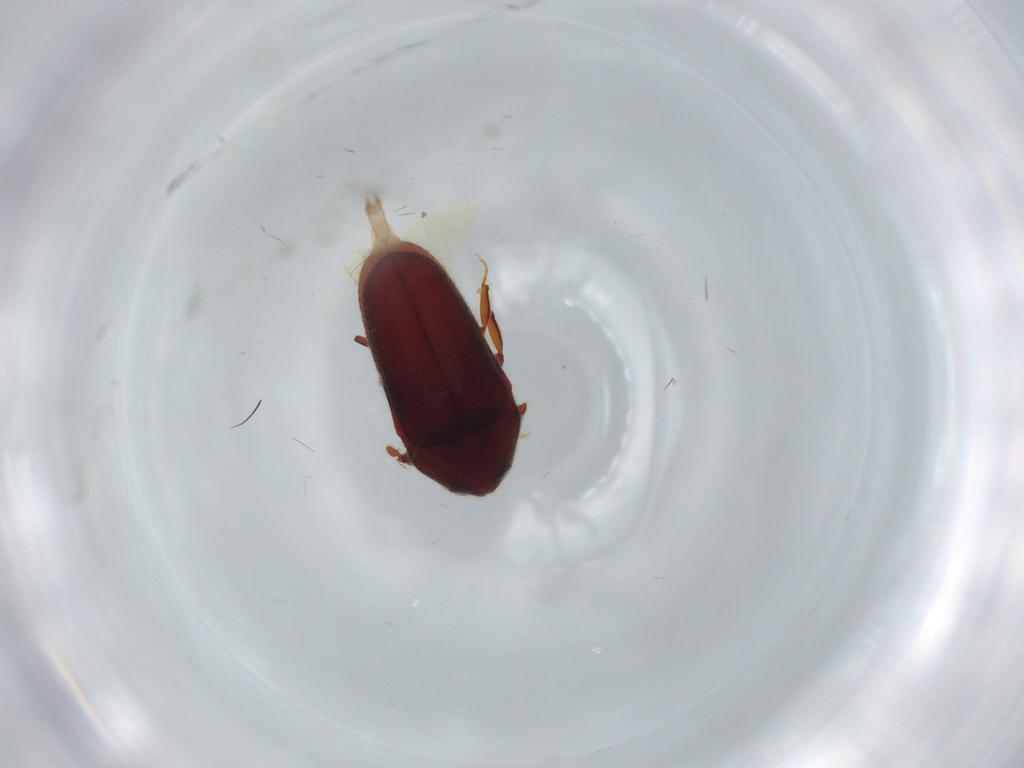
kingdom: Animalia
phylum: Arthropoda
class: Insecta
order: Coleoptera
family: Throscidae
